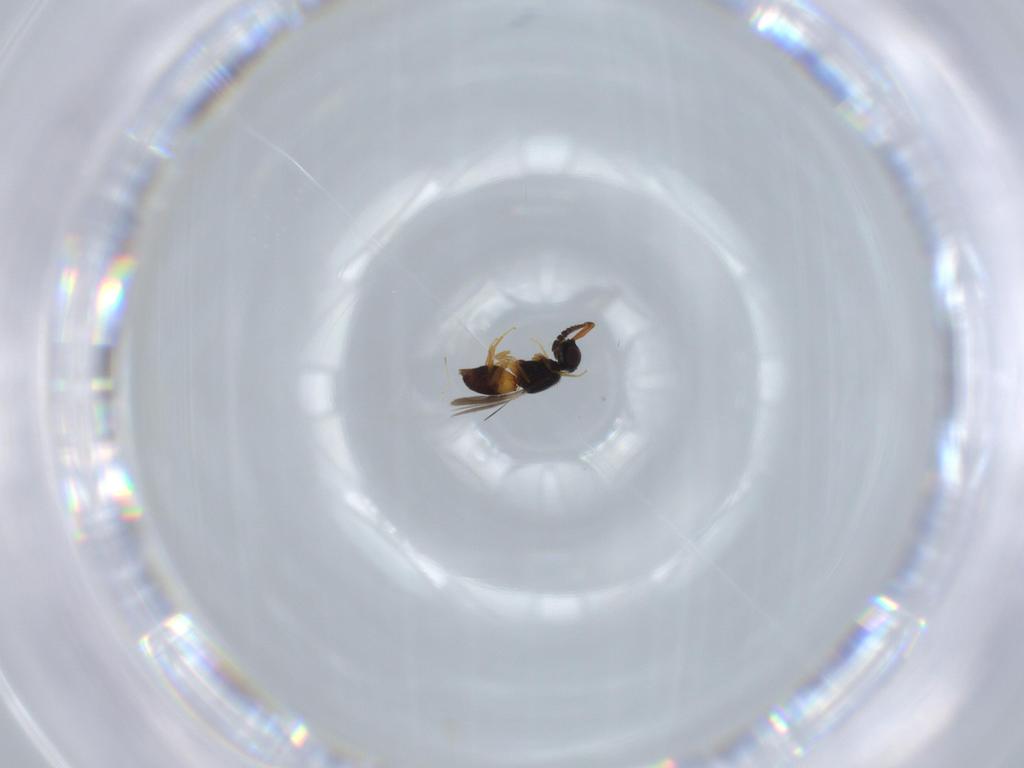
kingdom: Animalia
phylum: Arthropoda
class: Insecta
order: Hymenoptera
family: Trichogrammatidae
